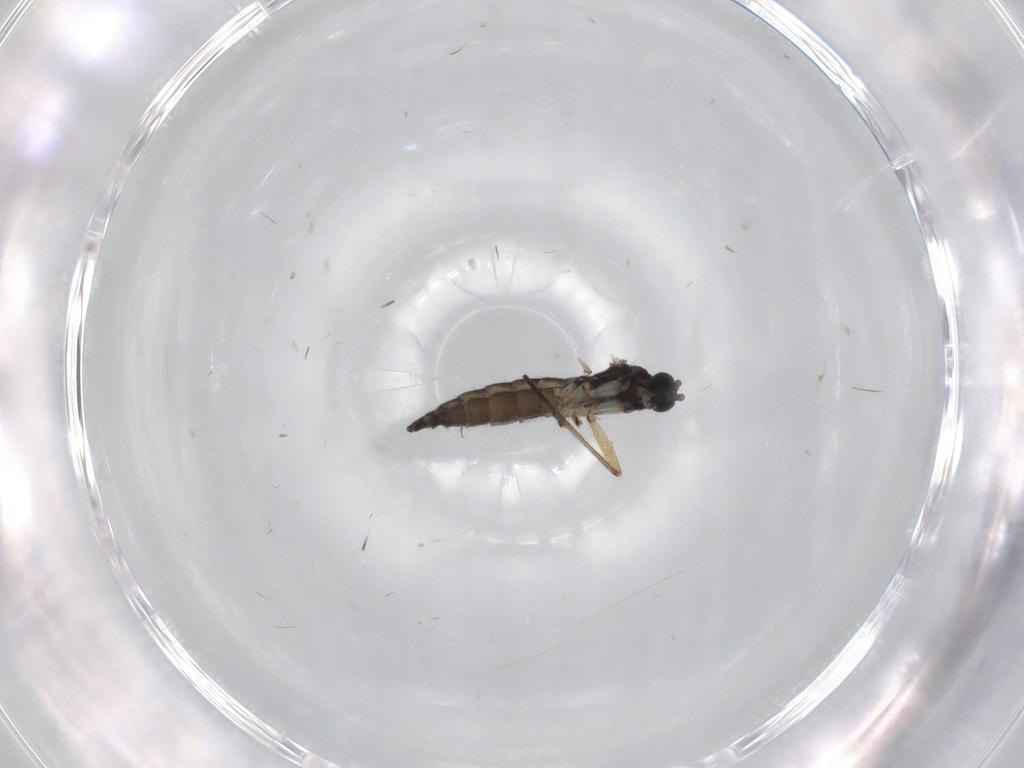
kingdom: Animalia
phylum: Arthropoda
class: Insecta
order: Diptera
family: Sciaridae
